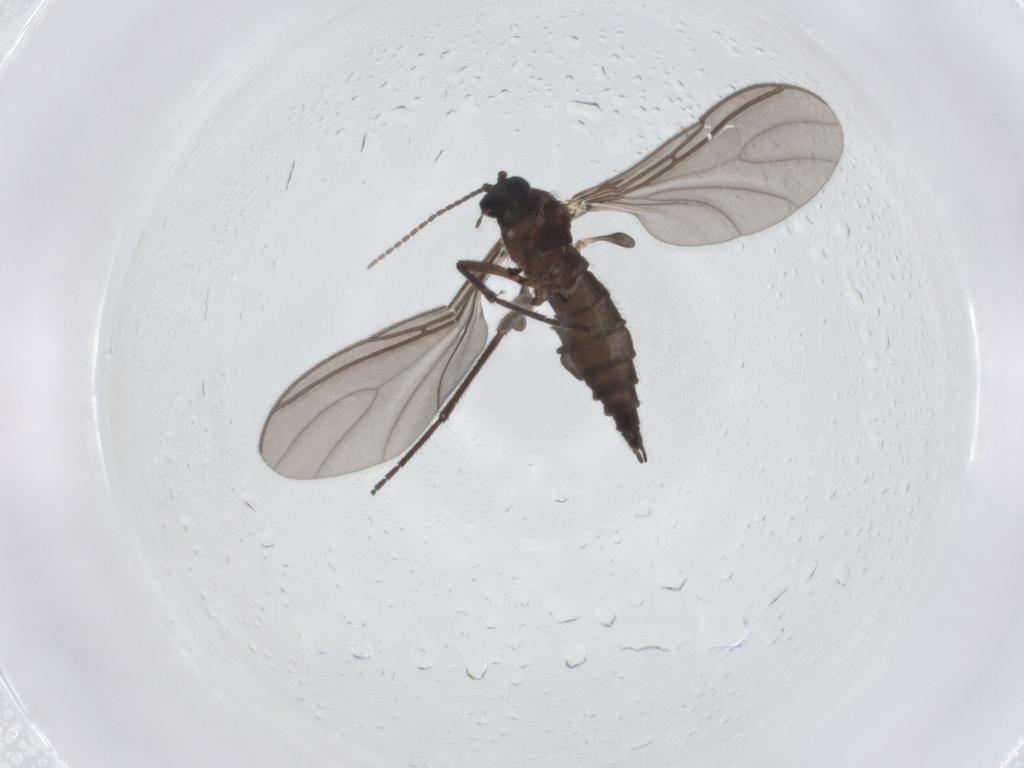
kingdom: Animalia
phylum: Arthropoda
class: Insecta
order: Diptera
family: Sciaridae
